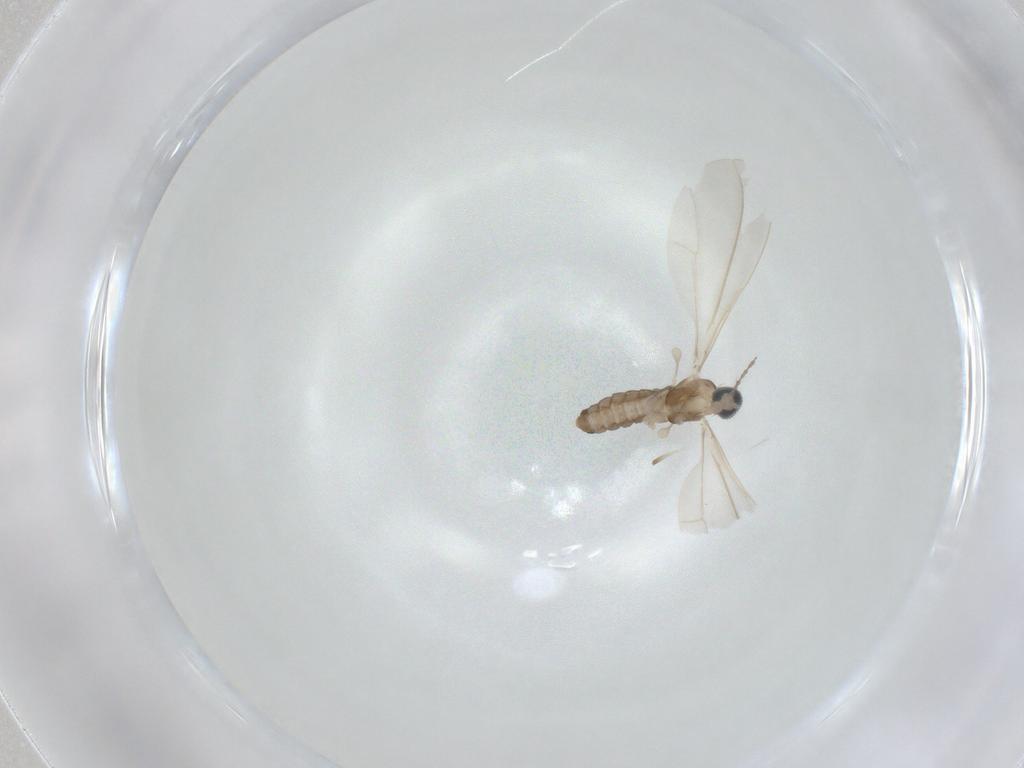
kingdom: Animalia
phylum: Arthropoda
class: Insecta
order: Diptera
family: Cecidomyiidae
